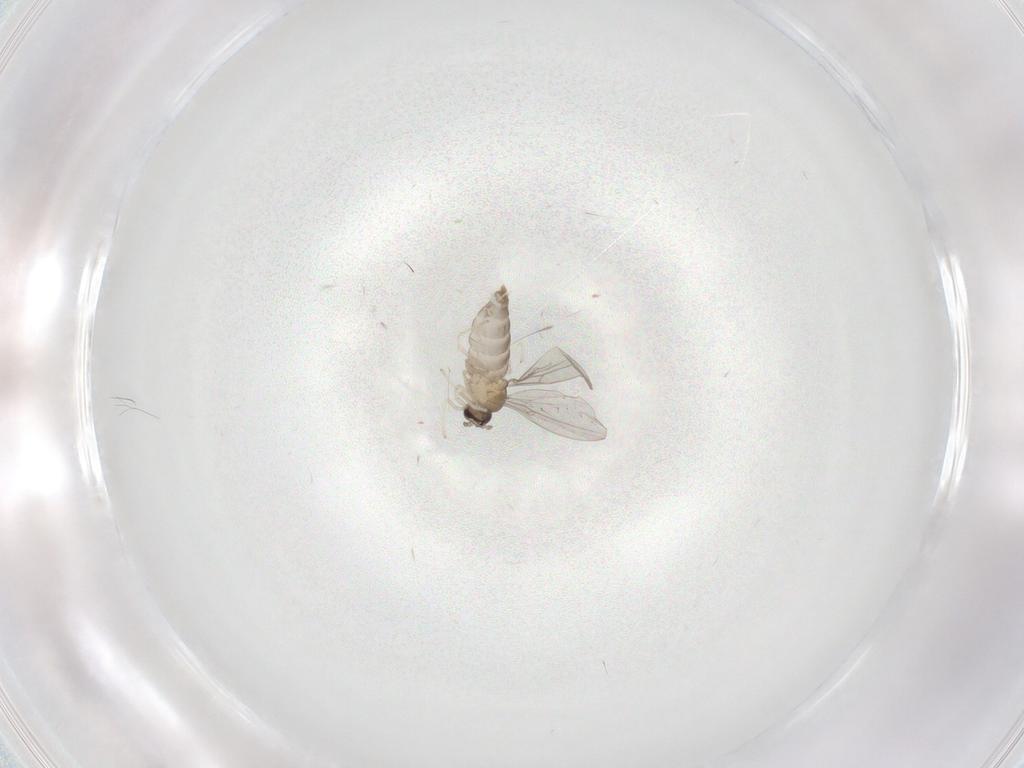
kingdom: Animalia
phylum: Arthropoda
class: Insecta
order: Diptera
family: Cecidomyiidae
